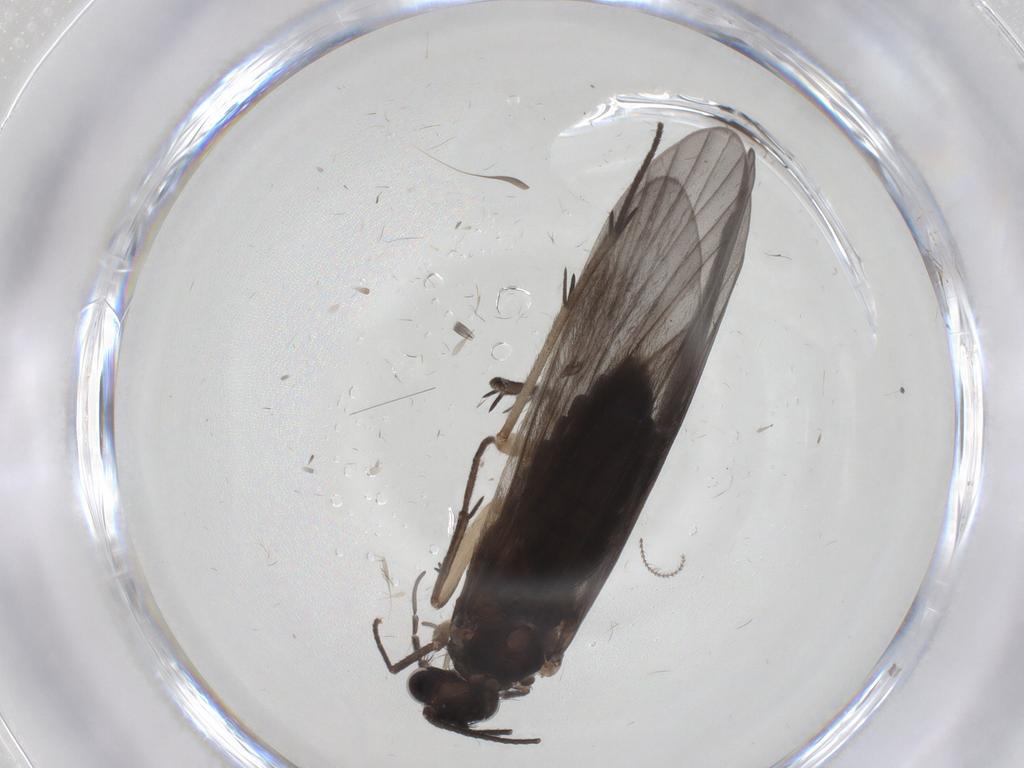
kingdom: Animalia
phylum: Arthropoda
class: Insecta
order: Trichoptera
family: Philopotamidae
